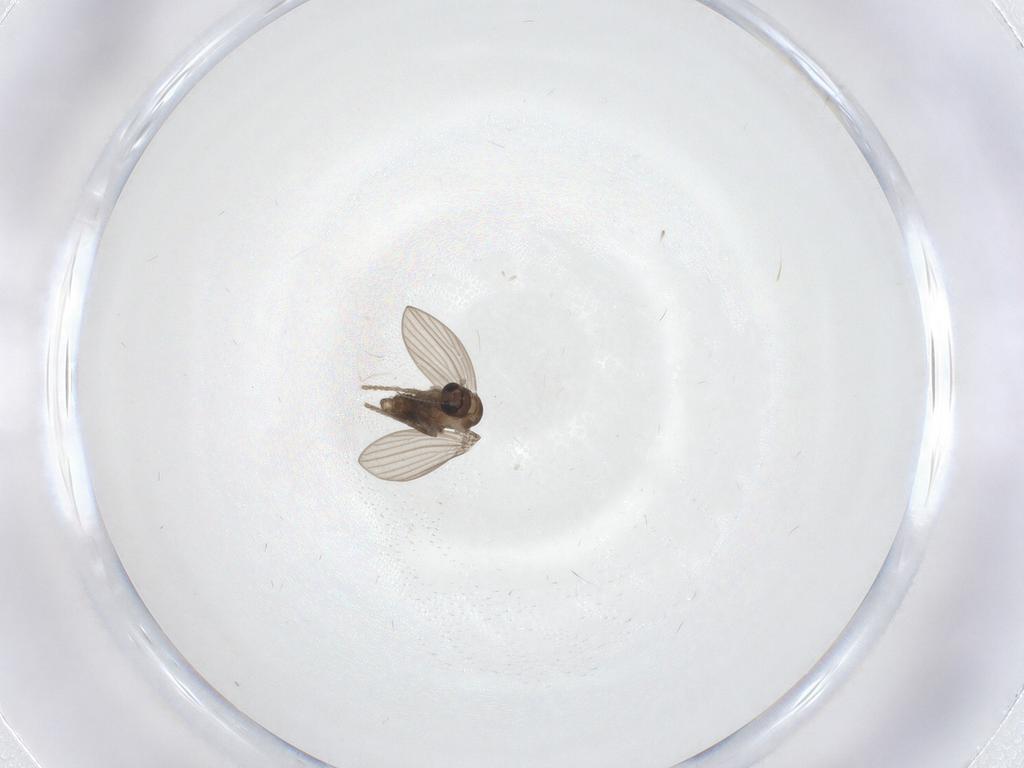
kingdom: Animalia
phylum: Arthropoda
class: Insecta
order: Diptera
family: Psychodidae
